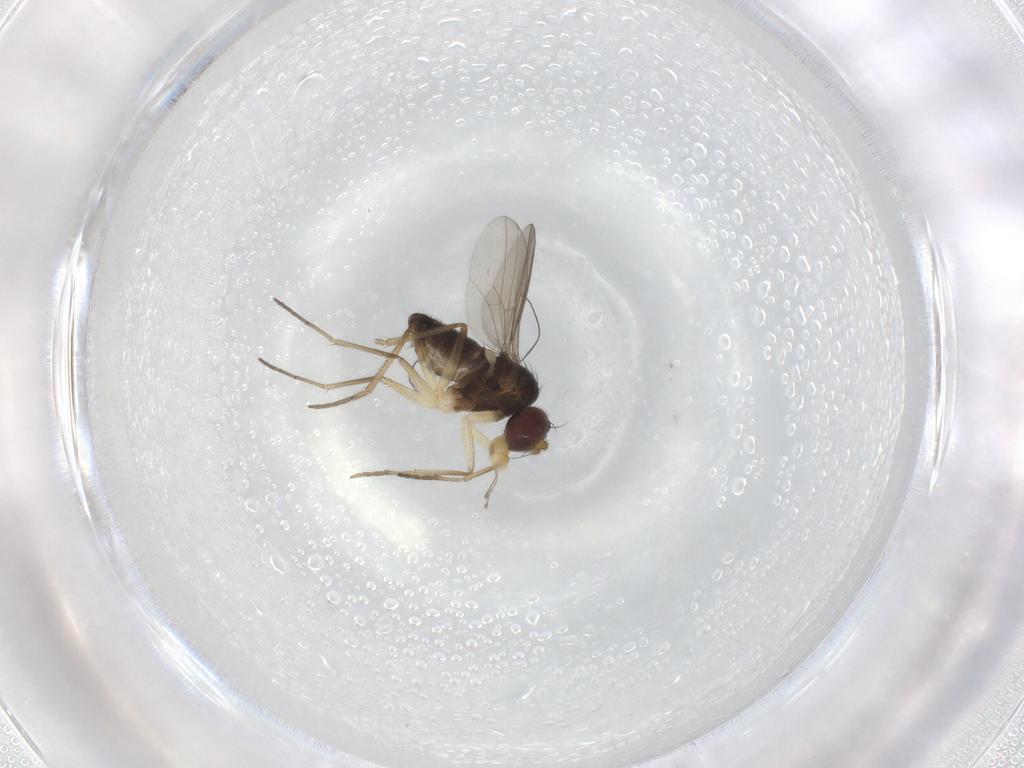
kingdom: Animalia
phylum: Arthropoda
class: Insecta
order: Diptera
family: Dolichopodidae
